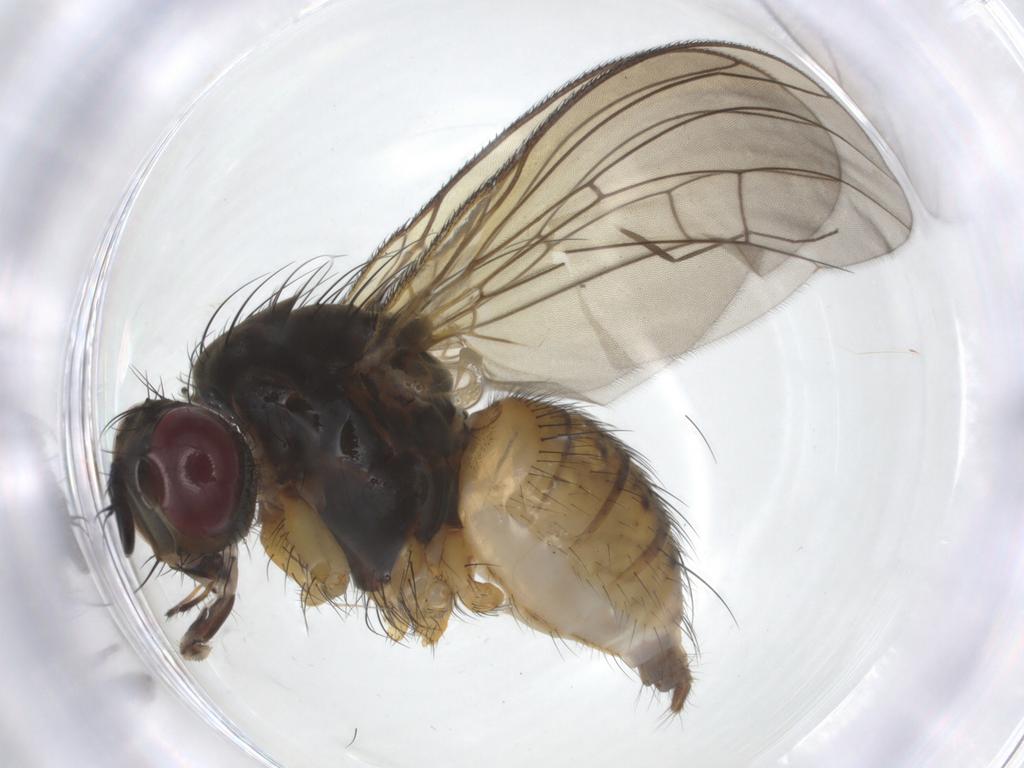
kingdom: Animalia
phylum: Arthropoda
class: Insecta
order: Diptera
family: Muscidae
